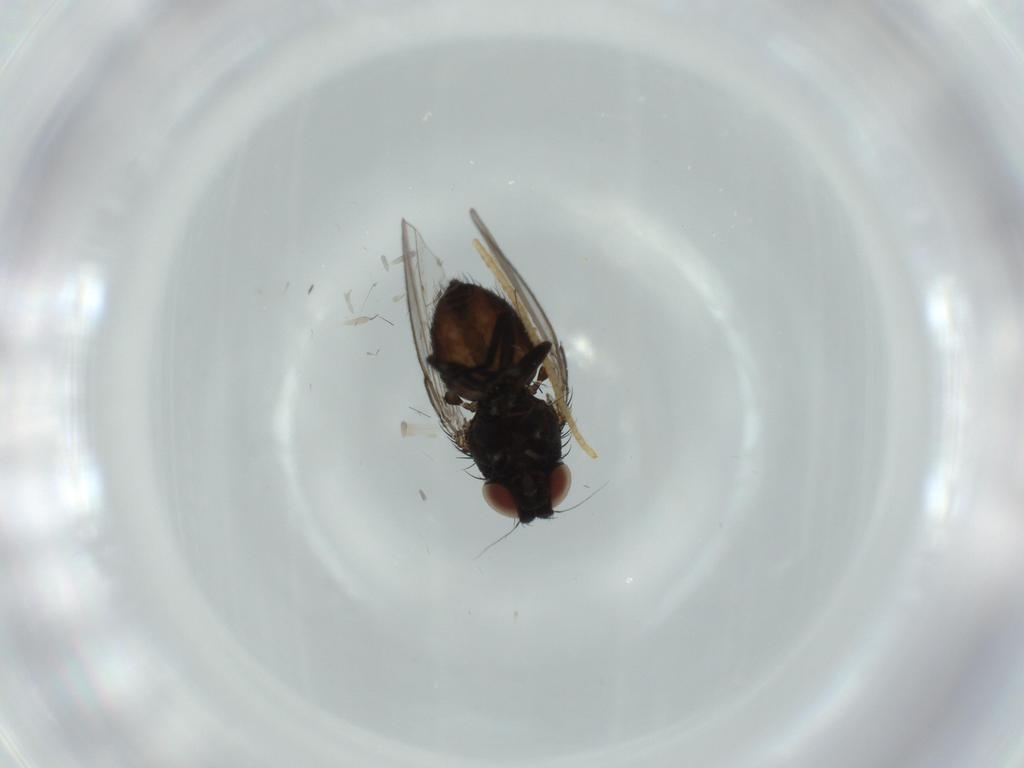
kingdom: Animalia
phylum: Arthropoda
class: Insecta
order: Diptera
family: Milichiidae
